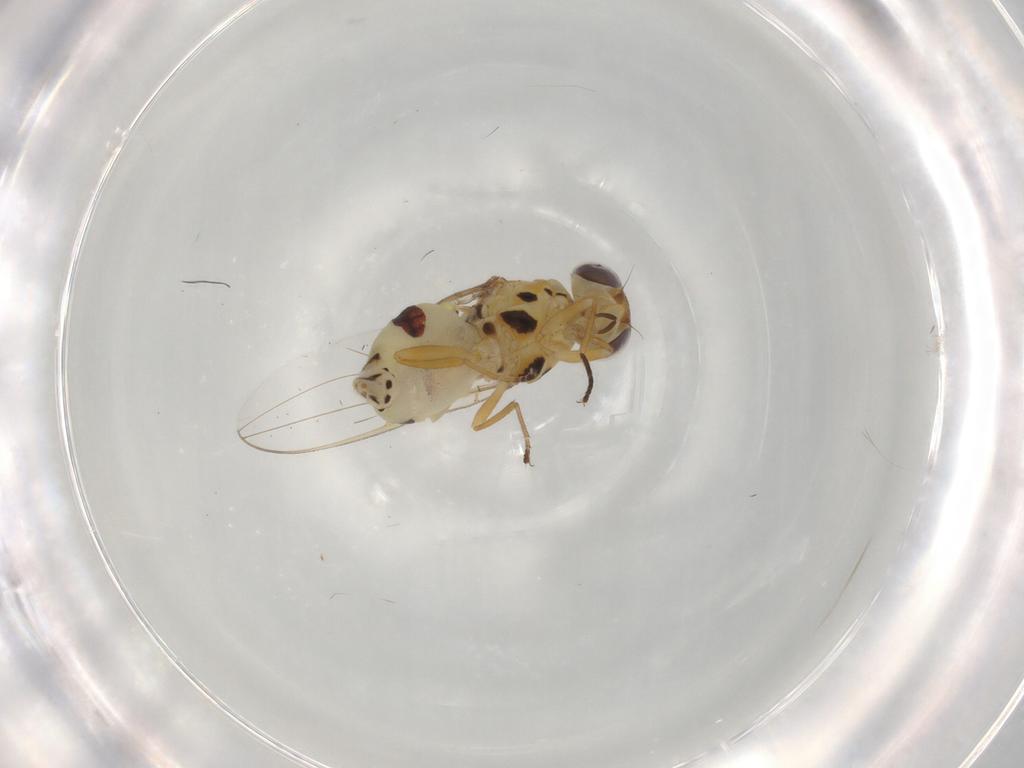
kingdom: Animalia
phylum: Arthropoda
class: Insecta
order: Diptera
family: Asteiidae
